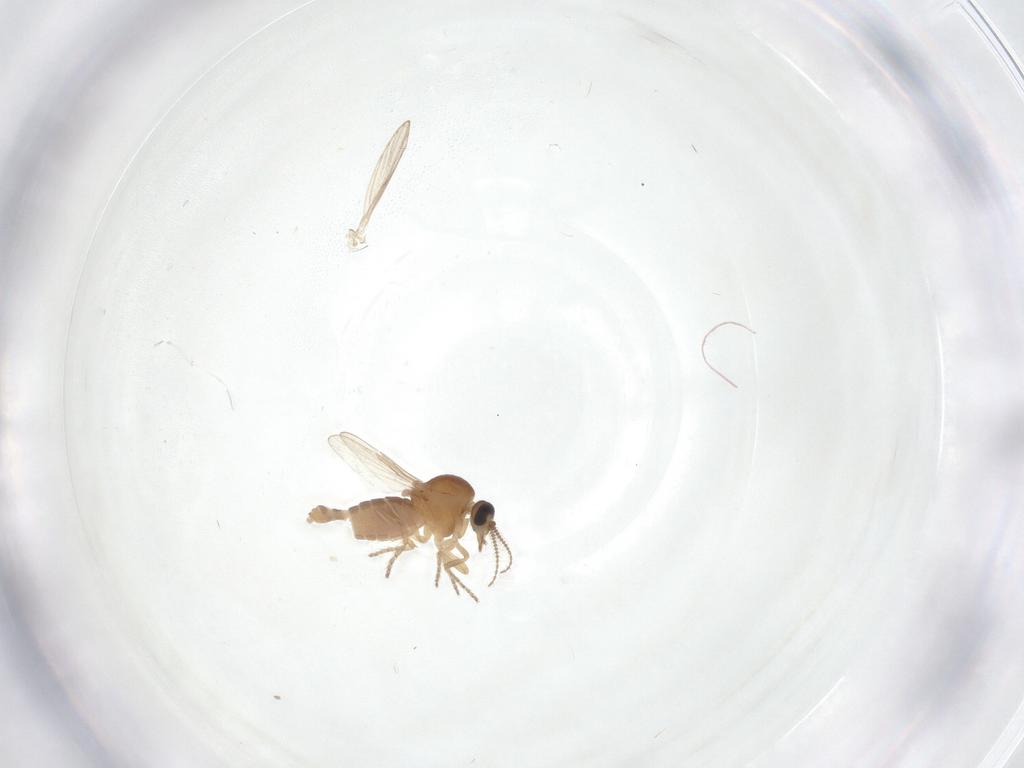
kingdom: Animalia
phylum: Arthropoda
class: Insecta
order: Diptera
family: Ceratopogonidae
